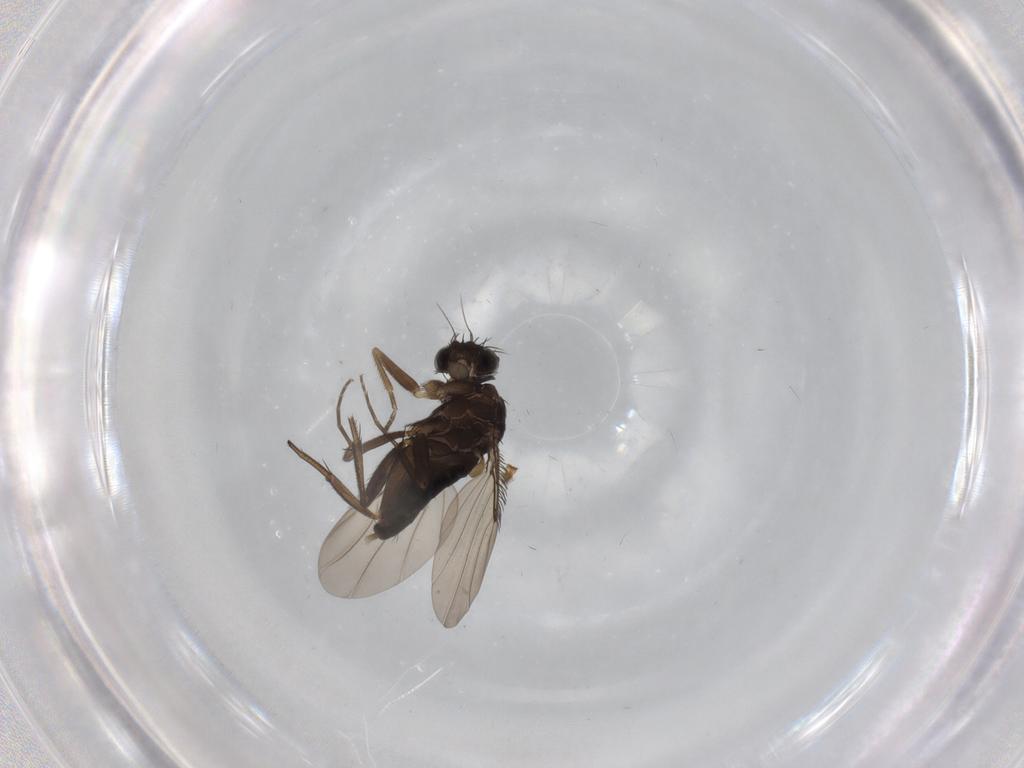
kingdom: Animalia
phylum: Arthropoda
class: Insecta
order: Diptera
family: Phoridae
